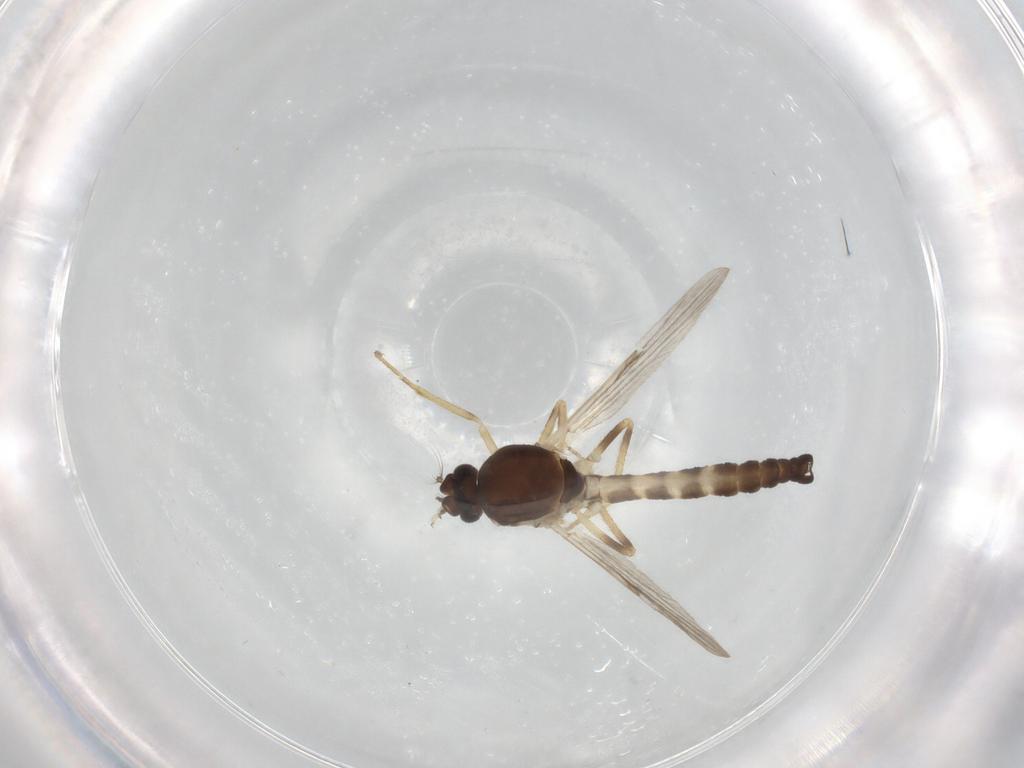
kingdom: Animalia
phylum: Arthropoda
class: Insecta
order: Diptera
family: Ceratopogonidae
